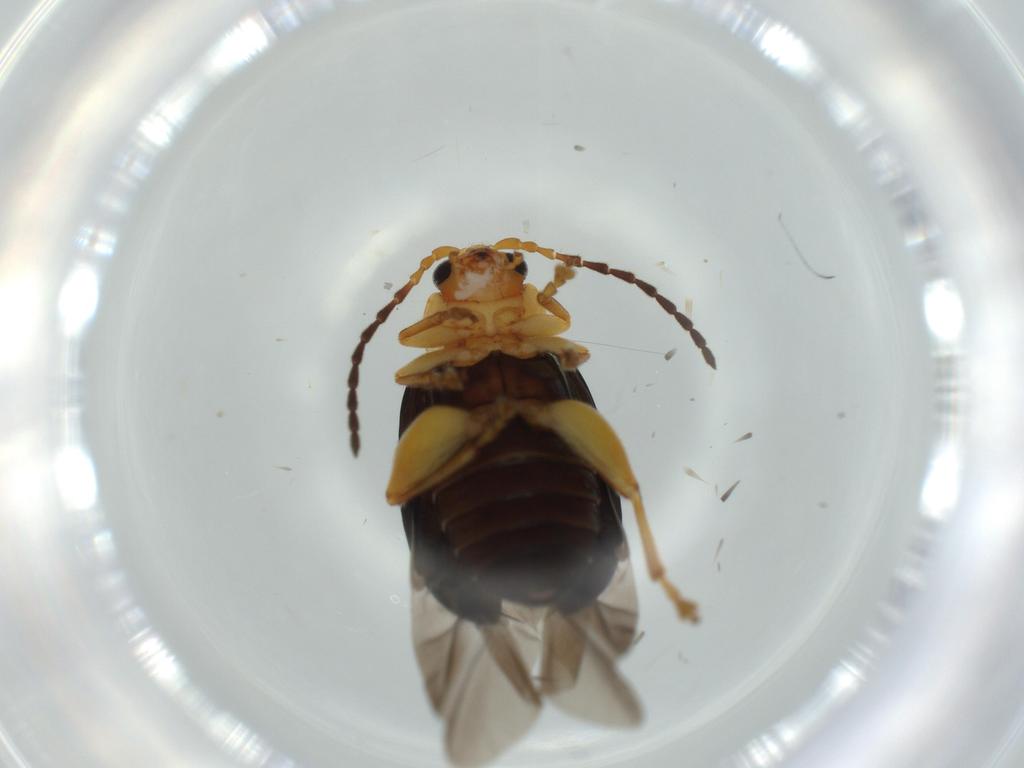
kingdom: Animalia
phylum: Arthropoda
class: Insecta
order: Coleoptera
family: Chrysomelidae
